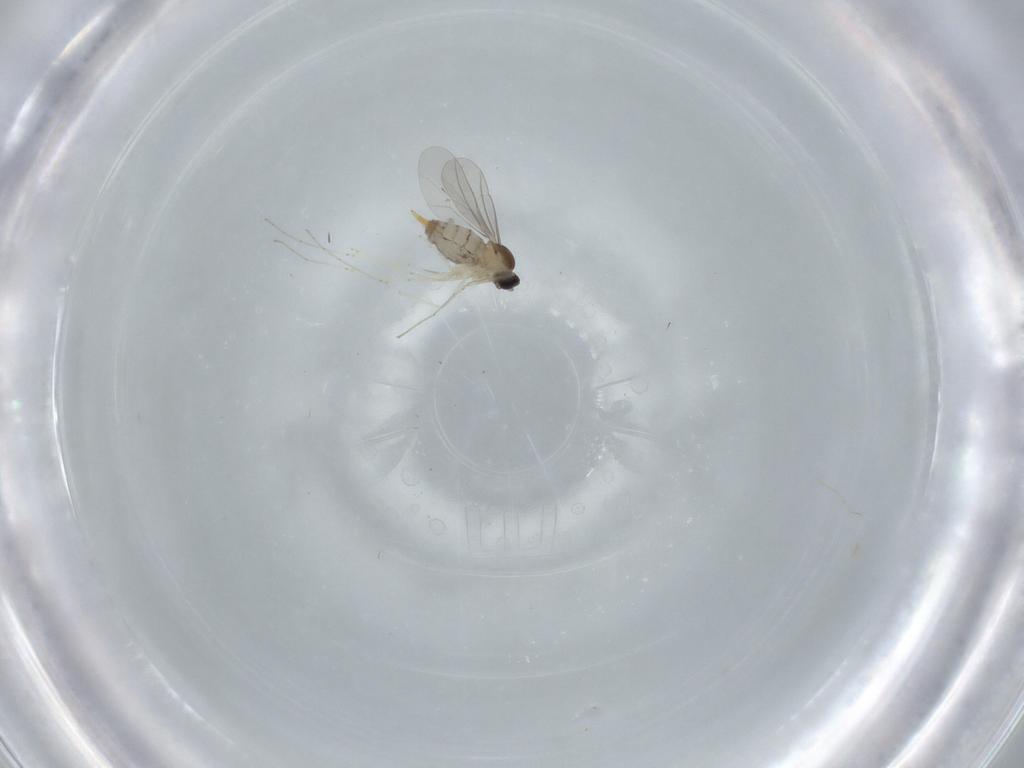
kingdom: Animalia
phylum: Arthropoda
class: Insecta
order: Diptera
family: Cecidomyiidae
